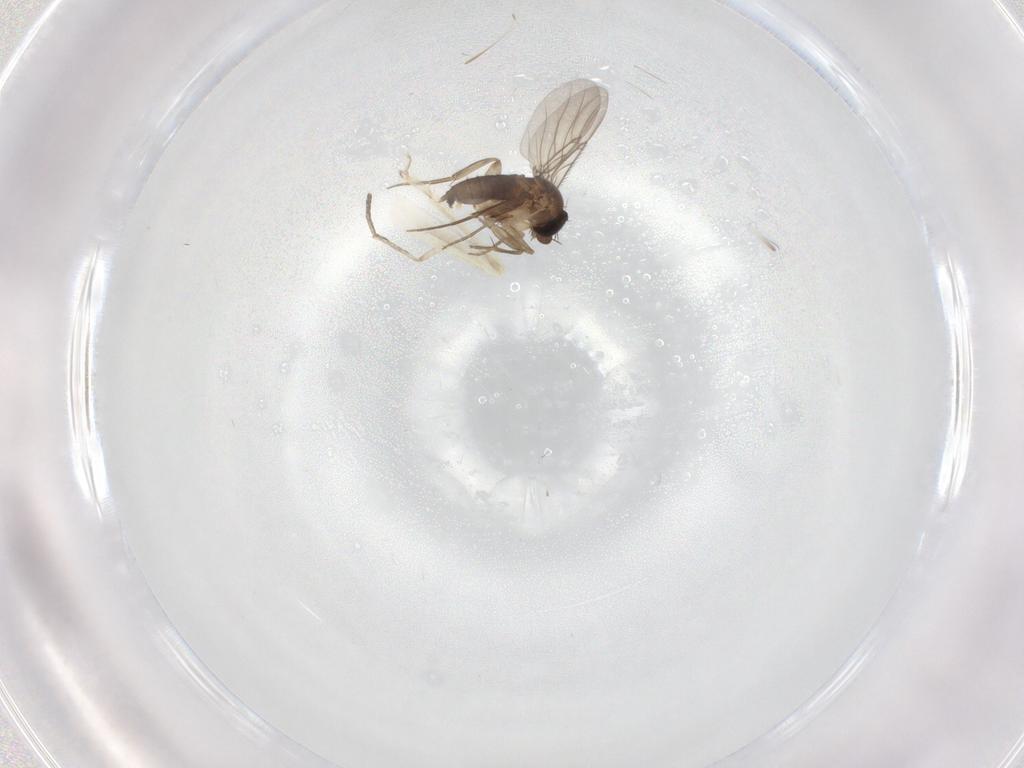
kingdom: Animalia
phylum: Arthropoda
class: Insecta
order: Diptera
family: Phoridae
